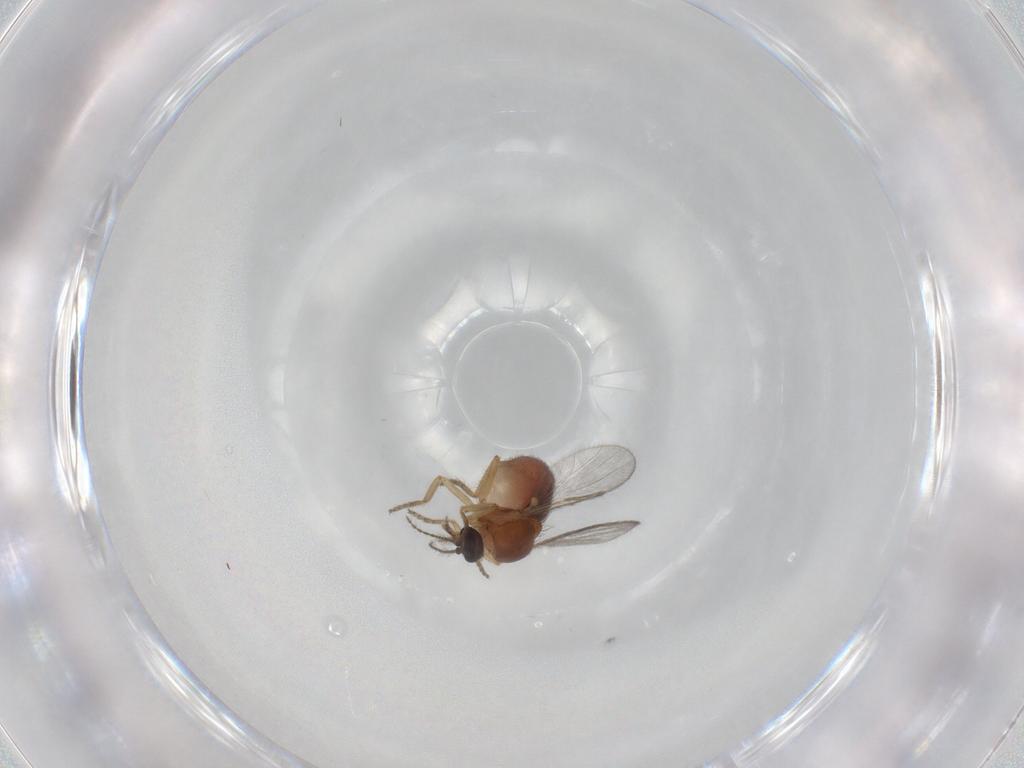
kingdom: Animalia
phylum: Arthropoda
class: Insecta
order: Diptera
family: Ceratopogonidae
